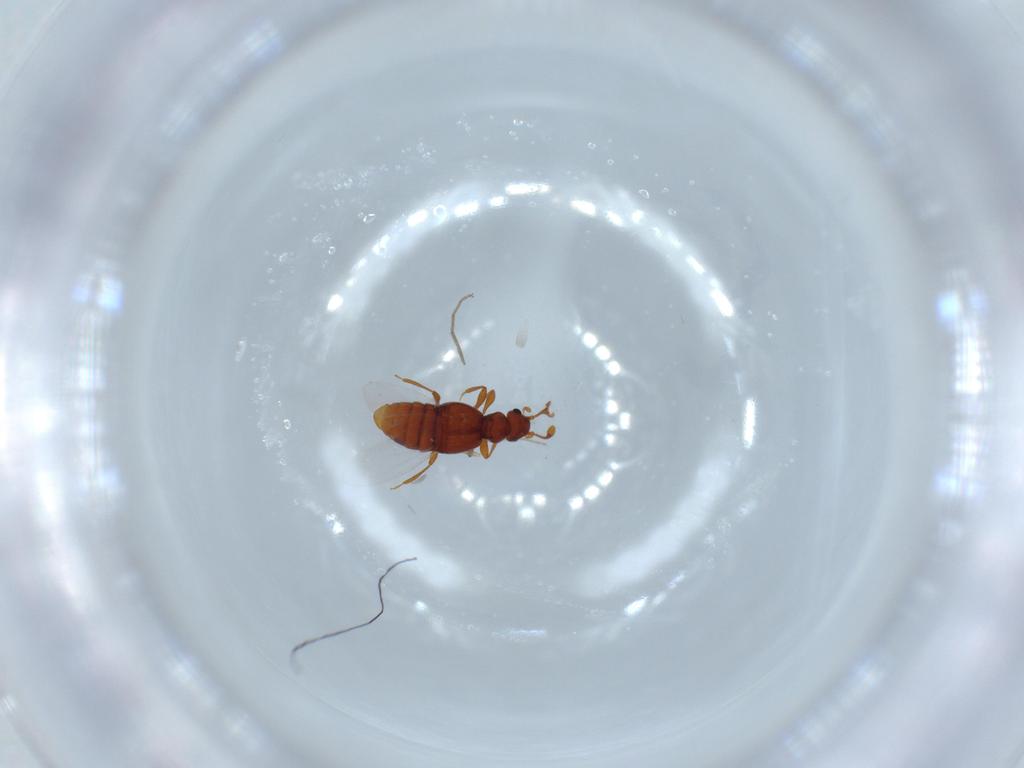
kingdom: Animalia
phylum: Arthropoda
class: Insecta
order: Coleoptera
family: Staphylinidae
